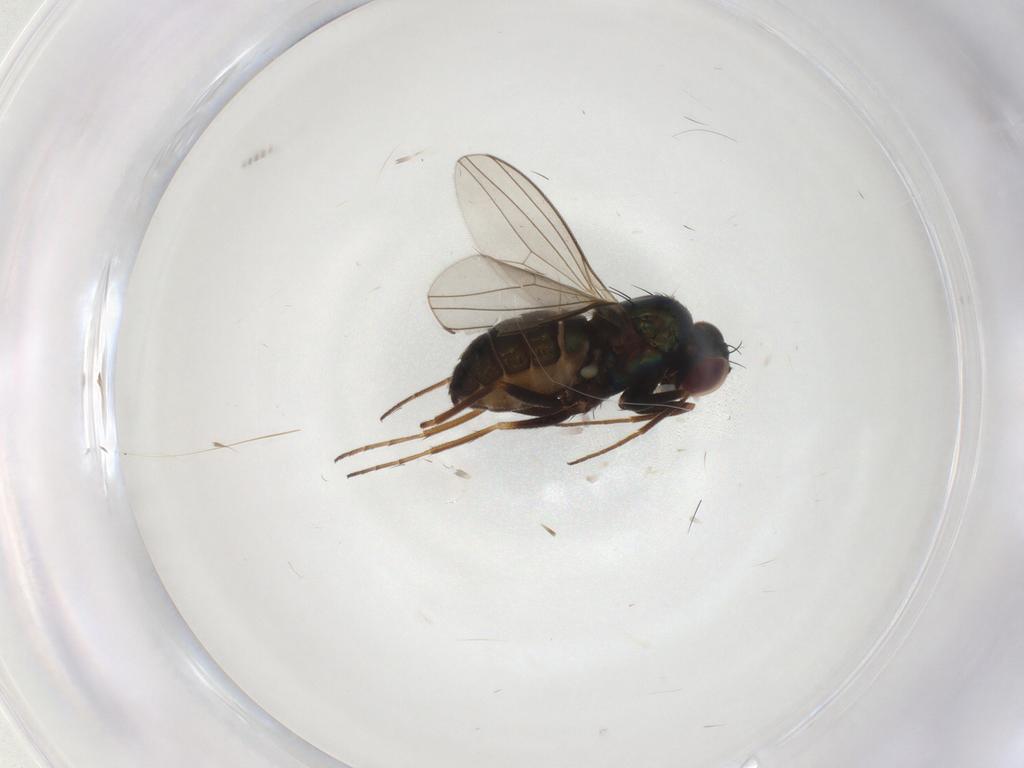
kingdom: Animalia
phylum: Arthropoda
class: Insecta
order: Diptera
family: Dolichopodidae
